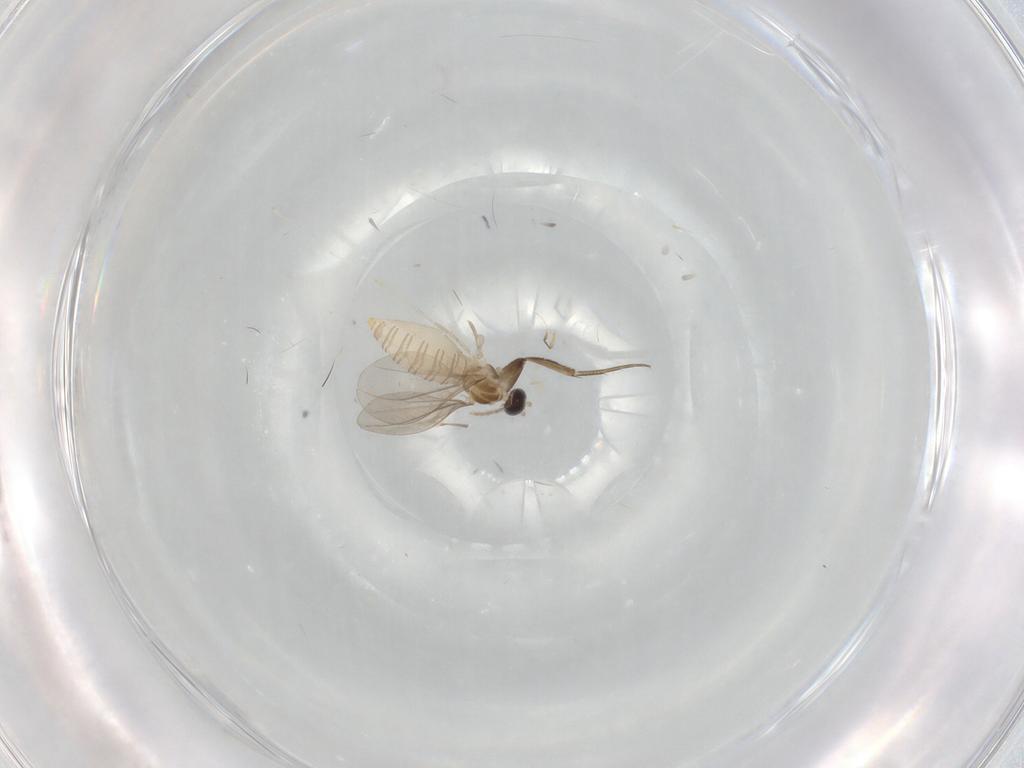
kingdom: Animalia
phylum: Arthropoda
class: Insecta
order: Diptera
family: Cecidomyiidae
